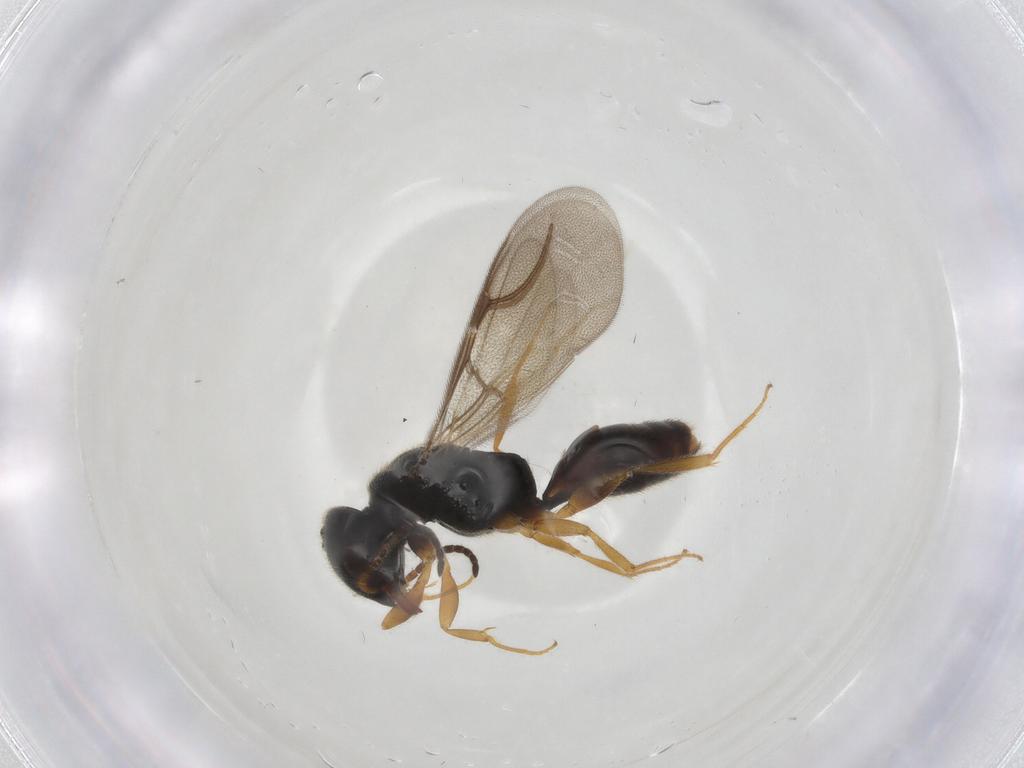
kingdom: Animalia
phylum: Arthropoda
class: Insecta
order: Hymenoptera
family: Bethylidae
